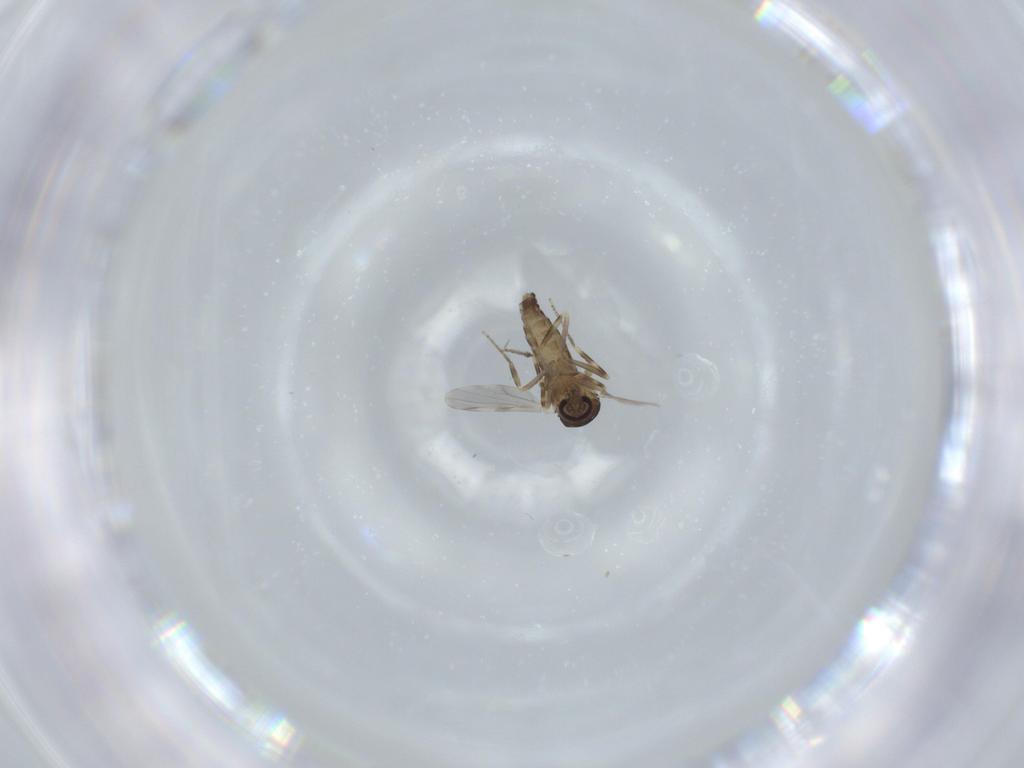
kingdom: Animalia
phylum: Arthropoda
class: Insecta
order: Diptera
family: Ceratopogonidae
